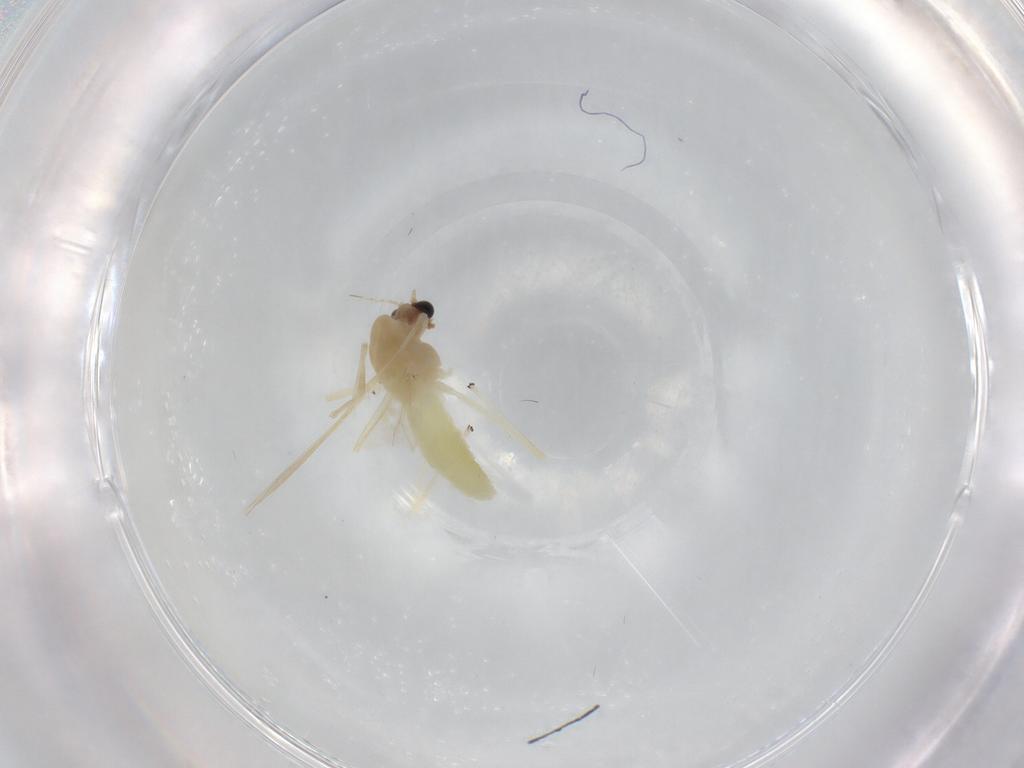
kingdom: Animalia
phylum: Arthropoda
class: Insecta
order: Diptera
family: Chironomidae
